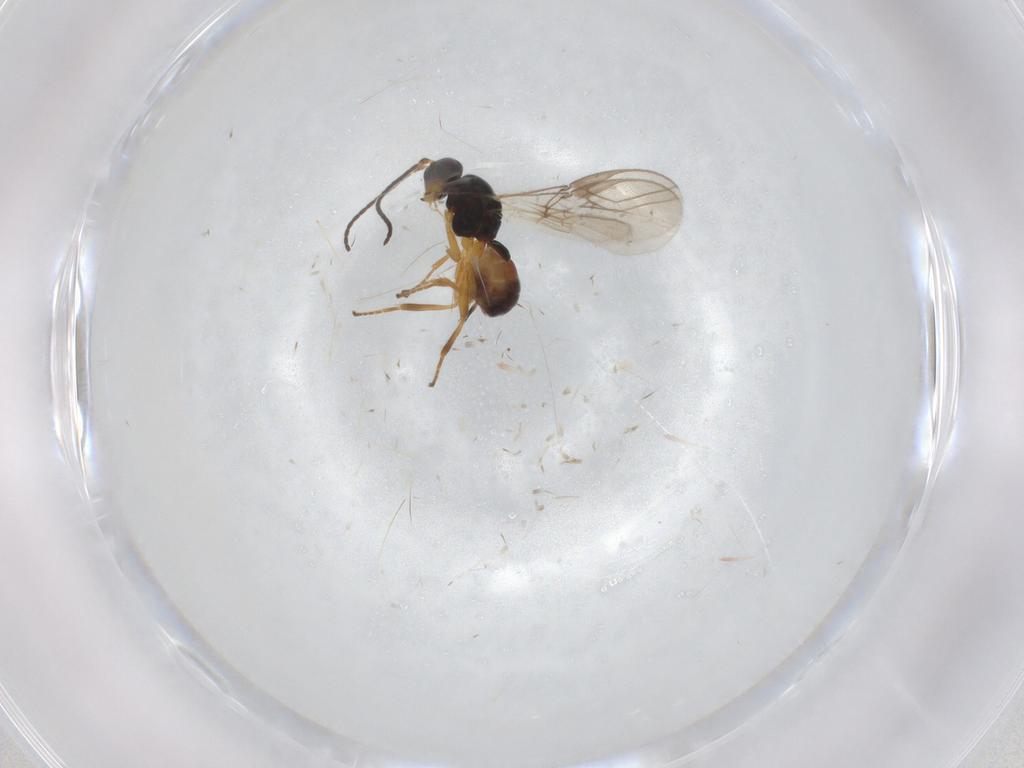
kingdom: Animalia
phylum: Arthropoda
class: Insecta
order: Hymenoptera
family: Braconidae
